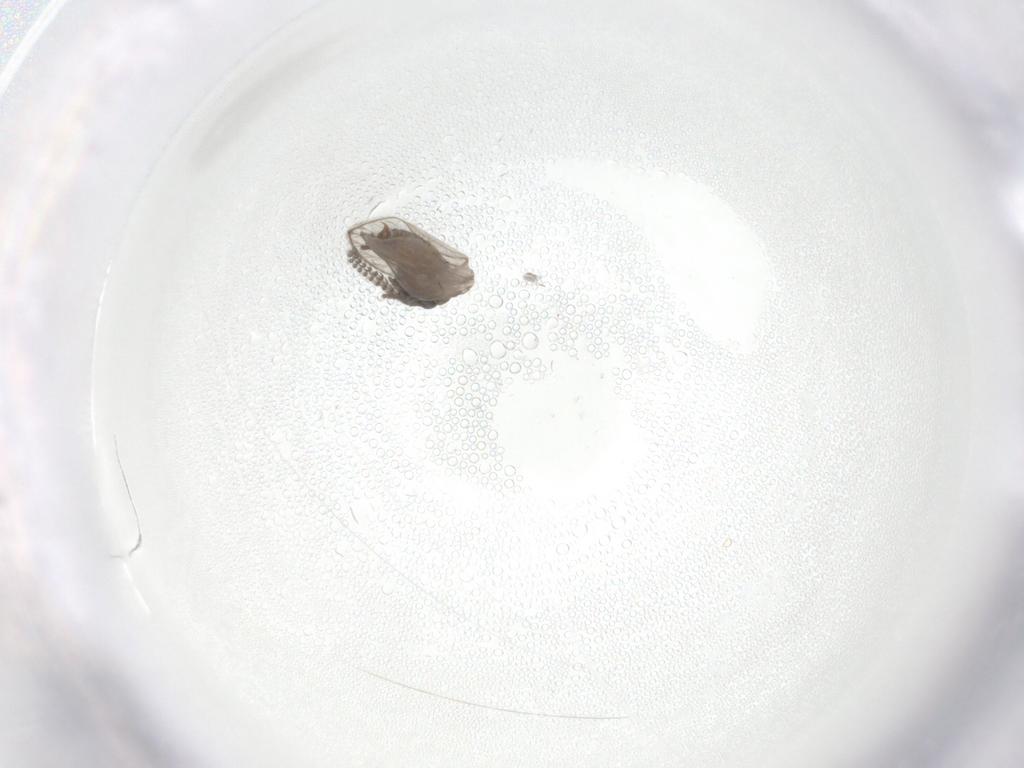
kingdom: Animalia
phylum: Arthropoda
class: Insecta
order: Diptera
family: Psychodidae
